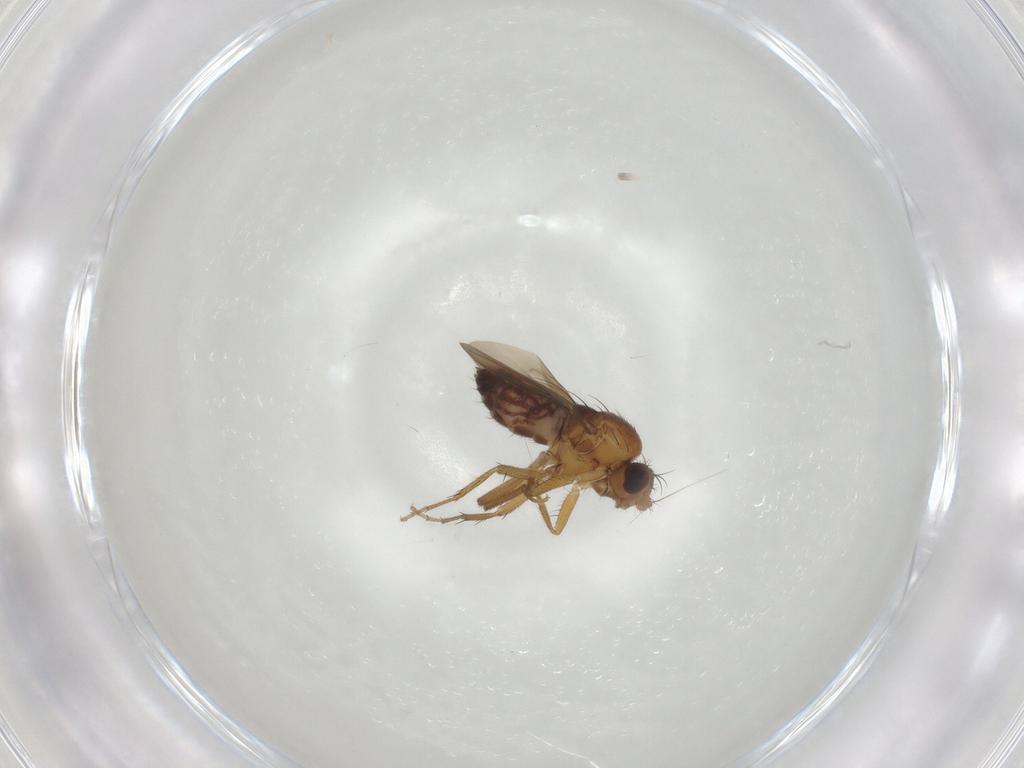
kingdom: Animalia
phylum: Arthropoda
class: Insecta
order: Diptera
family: Sphaeroceridae
